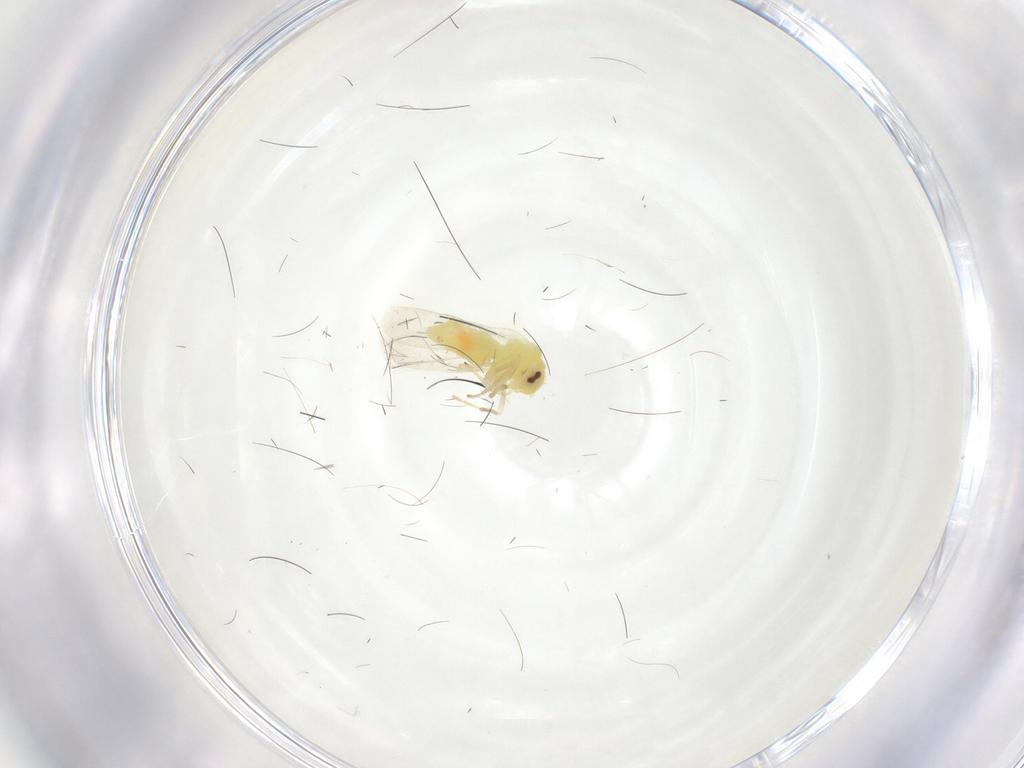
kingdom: Animalia
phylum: Arthropoda
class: Insecta
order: Hemiptera
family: Aleyrodidae
